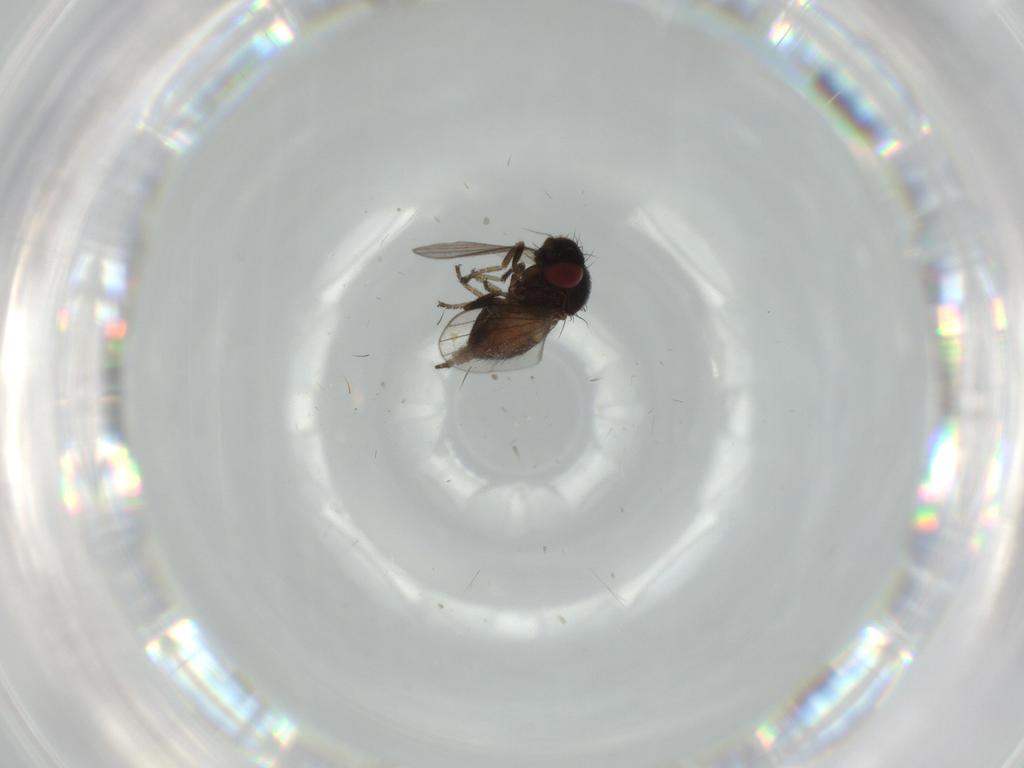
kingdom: Animalia
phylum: Arthropoda
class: Insecta
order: Diptera
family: Milichiidae
